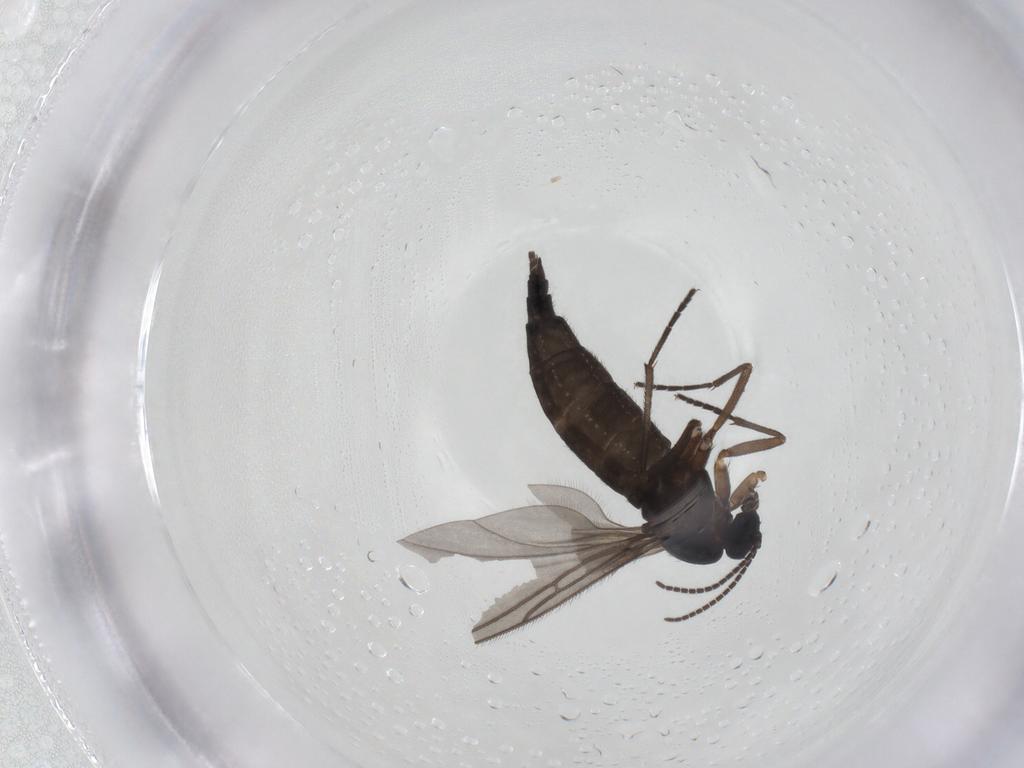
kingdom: Animalia
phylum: Arthropoda
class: Insecta
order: Diptera
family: Sciaridae
